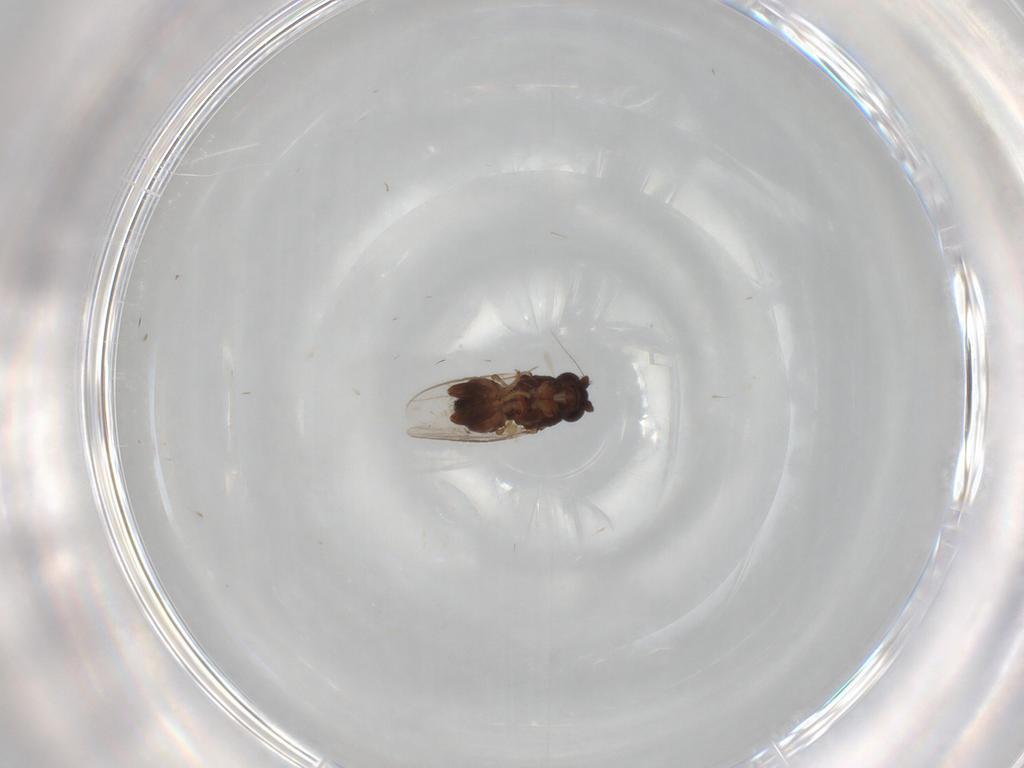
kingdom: Animalia
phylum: Arthropoda
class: Insecta
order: Diptera
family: Sphaeroceridae
